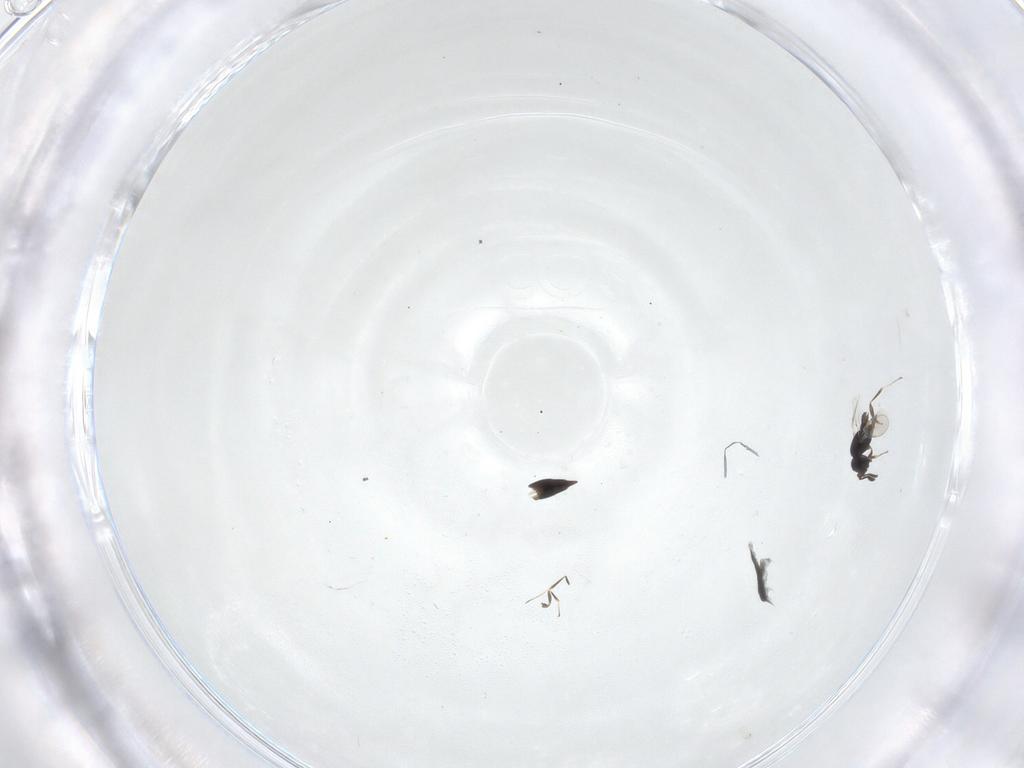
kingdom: Animalia
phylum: Arthropoda
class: Insecta
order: Hymenoptera
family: Scelionidae
